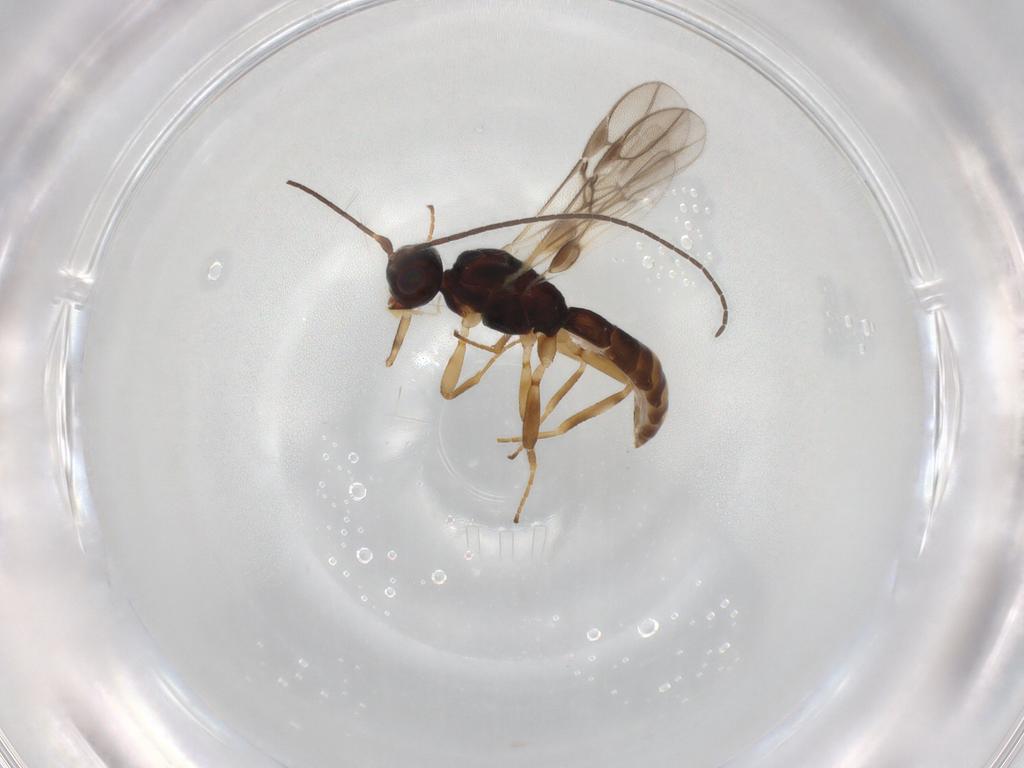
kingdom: Animalia
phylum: Arthropoda
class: Insecta
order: Hymenoptera
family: Braconidae
